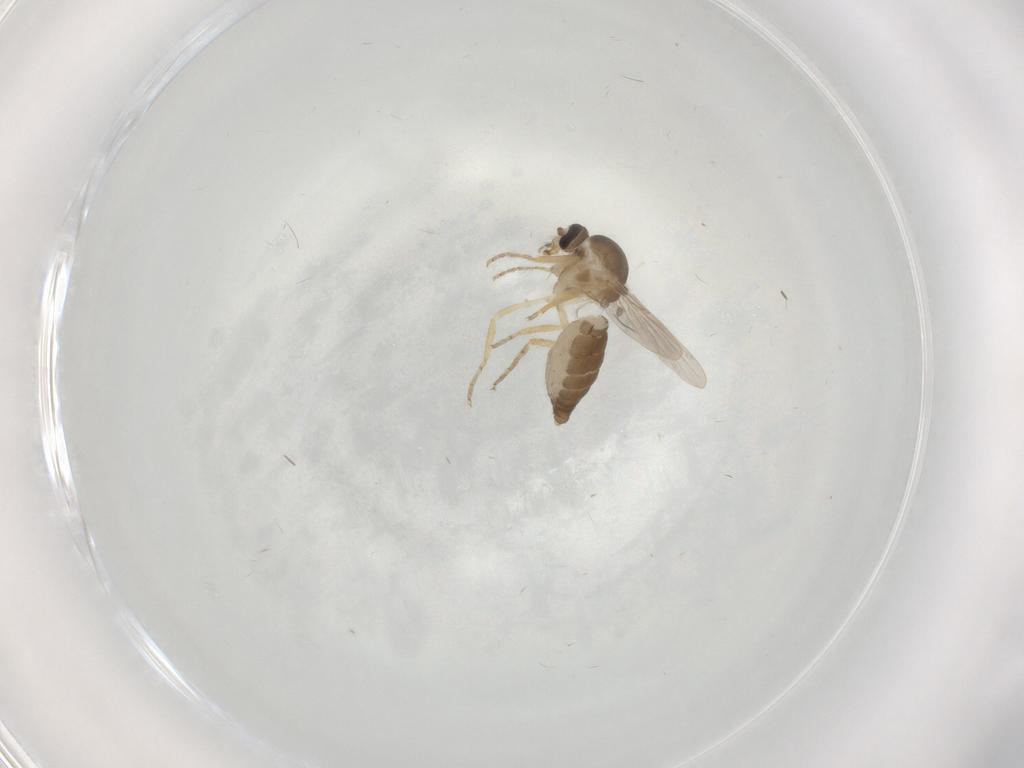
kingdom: Animalia
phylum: Arthropoda
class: Insecta
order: Diptera
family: Ceratopogonidae
